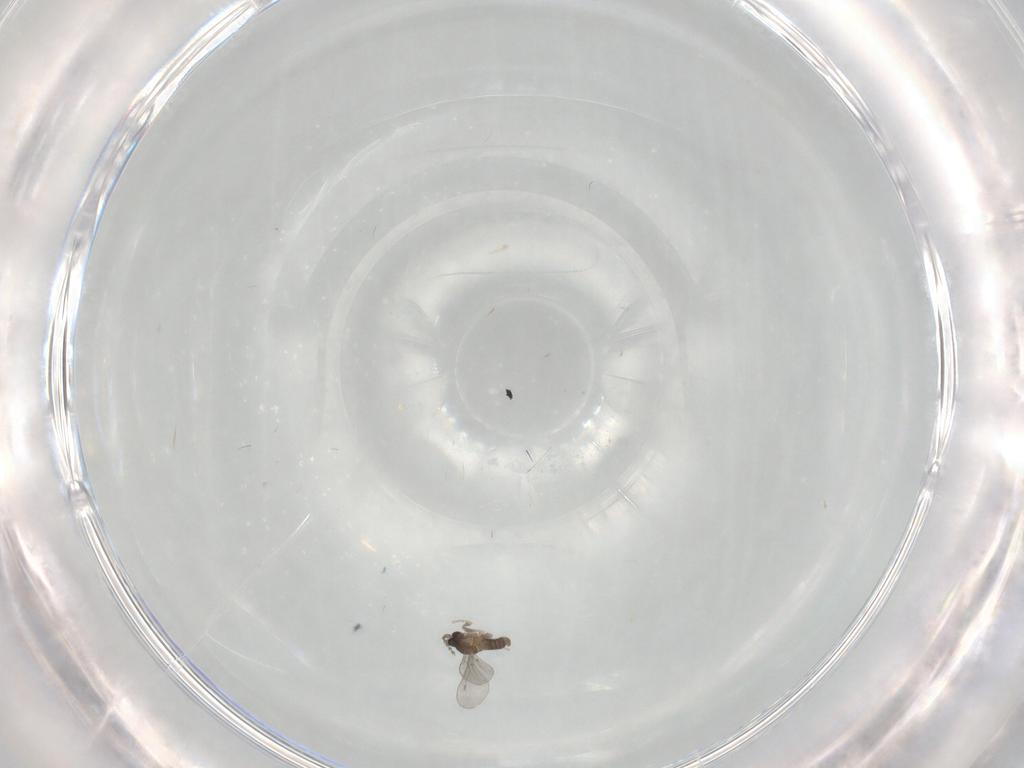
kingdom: Animalia
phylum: Arthropoda
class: Insecta
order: Diptera
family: Cecidomyiidae
